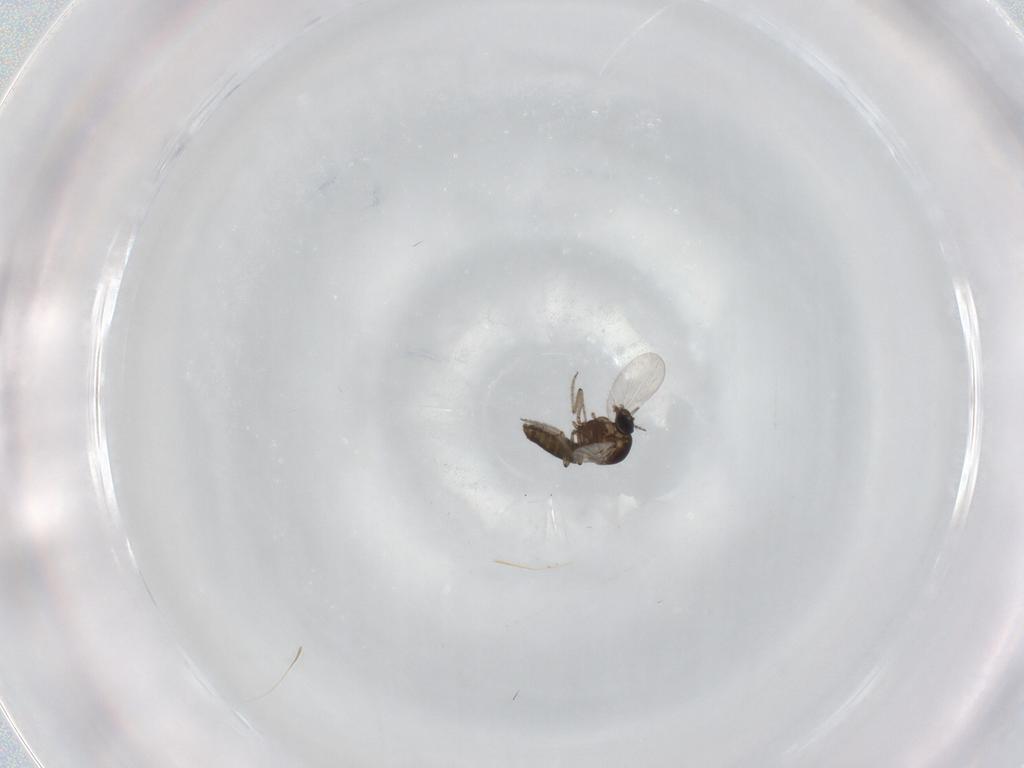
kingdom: Animalia
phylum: Arthropoda
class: Insecta
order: Diptera
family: Ceratopogonidae
